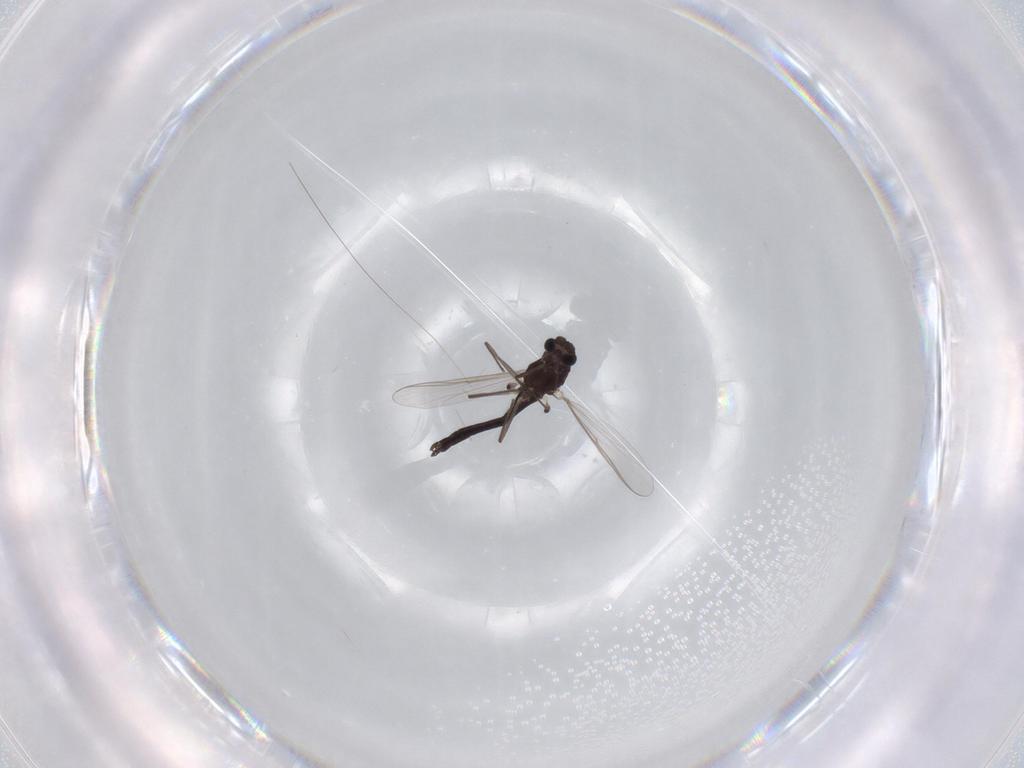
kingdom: Animalia
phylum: Arthropoda
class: Insecta
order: Diptera
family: Chironomidae
